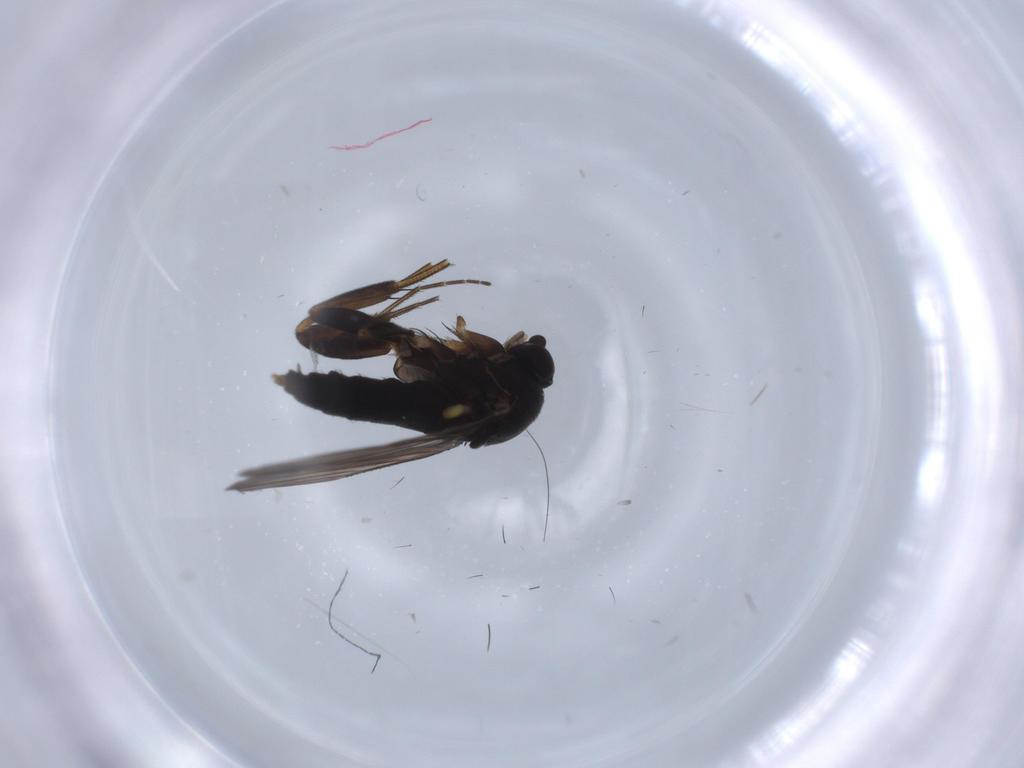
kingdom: Animalia
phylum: Arthropoda
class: Insecta
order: Diptera
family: Phoridae
